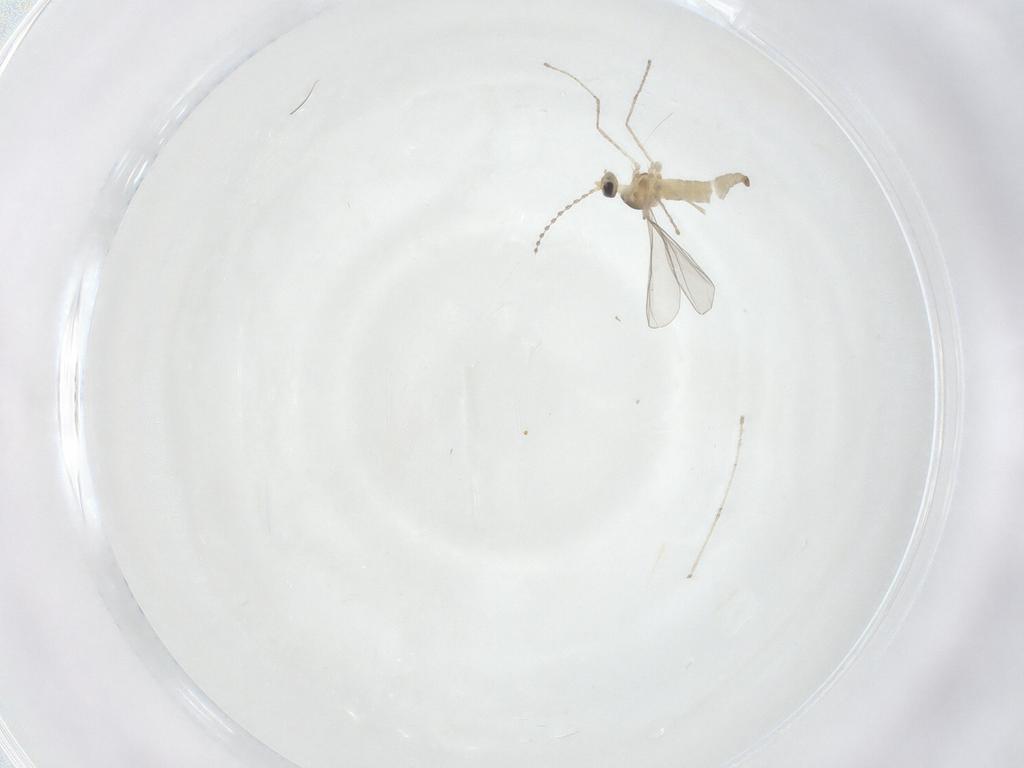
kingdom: Animalia
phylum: Arthropoda
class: Insecta
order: Diptera
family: Cecidomyiidae
